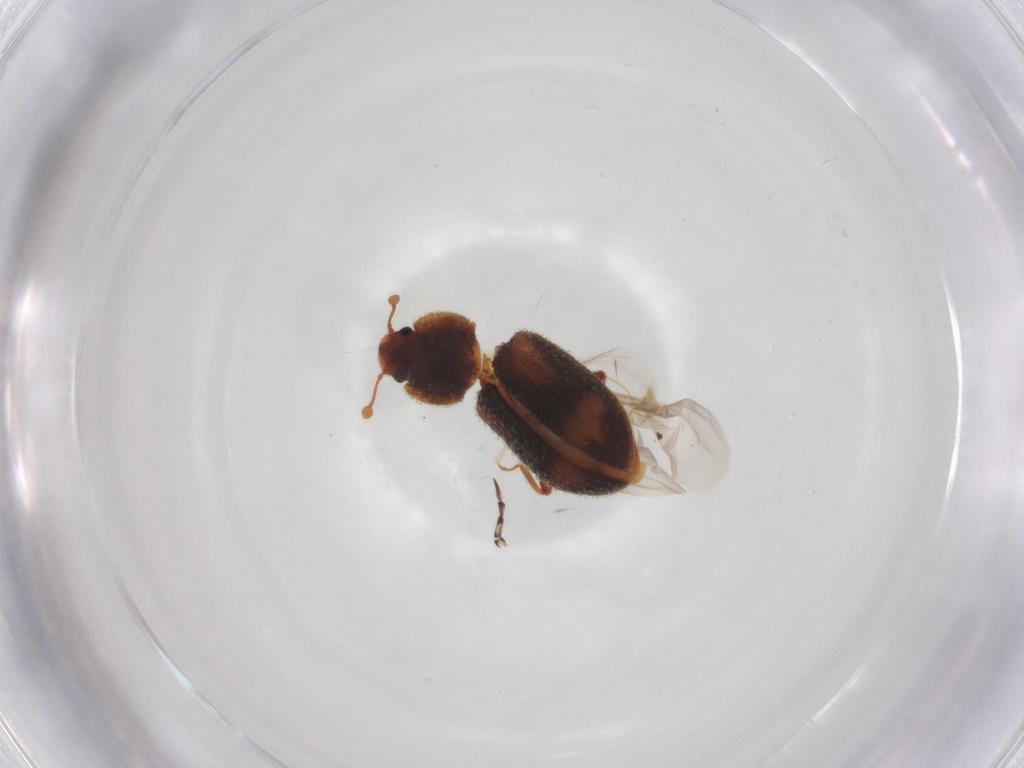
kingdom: Animalia
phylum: Arthropoda
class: Insecta
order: Coleoptera
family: Zopheridae
